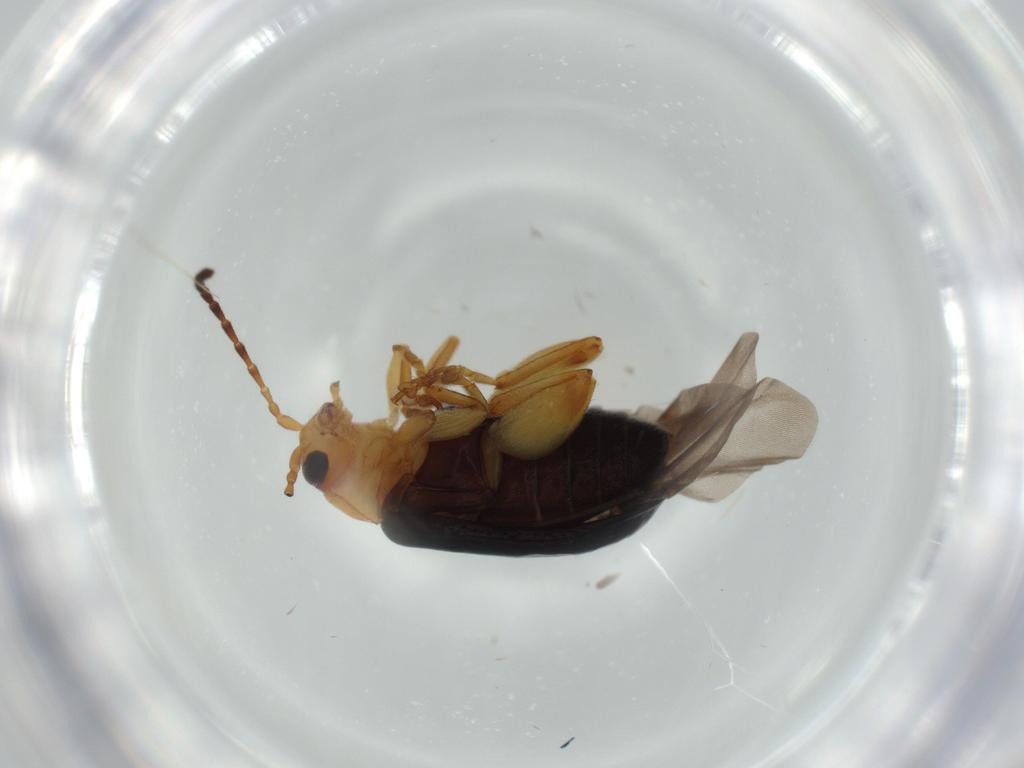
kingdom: Animalia
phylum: Arthropoda
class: Insecta
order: Coleoptera
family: Chrysomelidae
